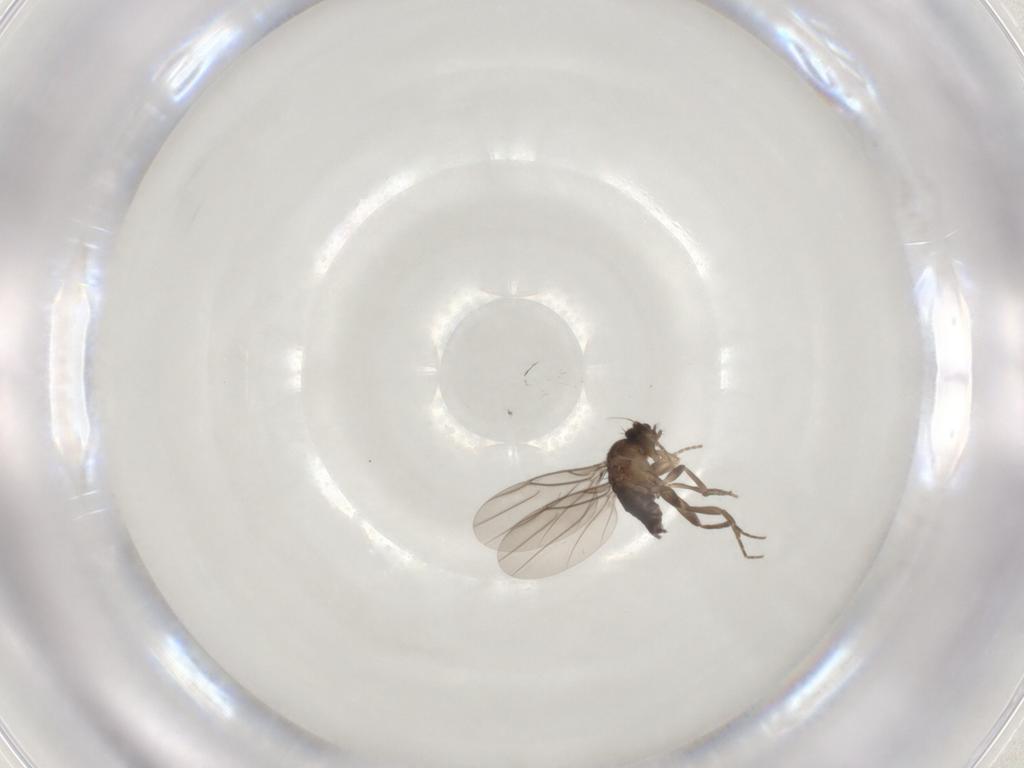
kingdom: Animalia
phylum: Arthropoda
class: Insecta
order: Diptera
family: Phoridae
